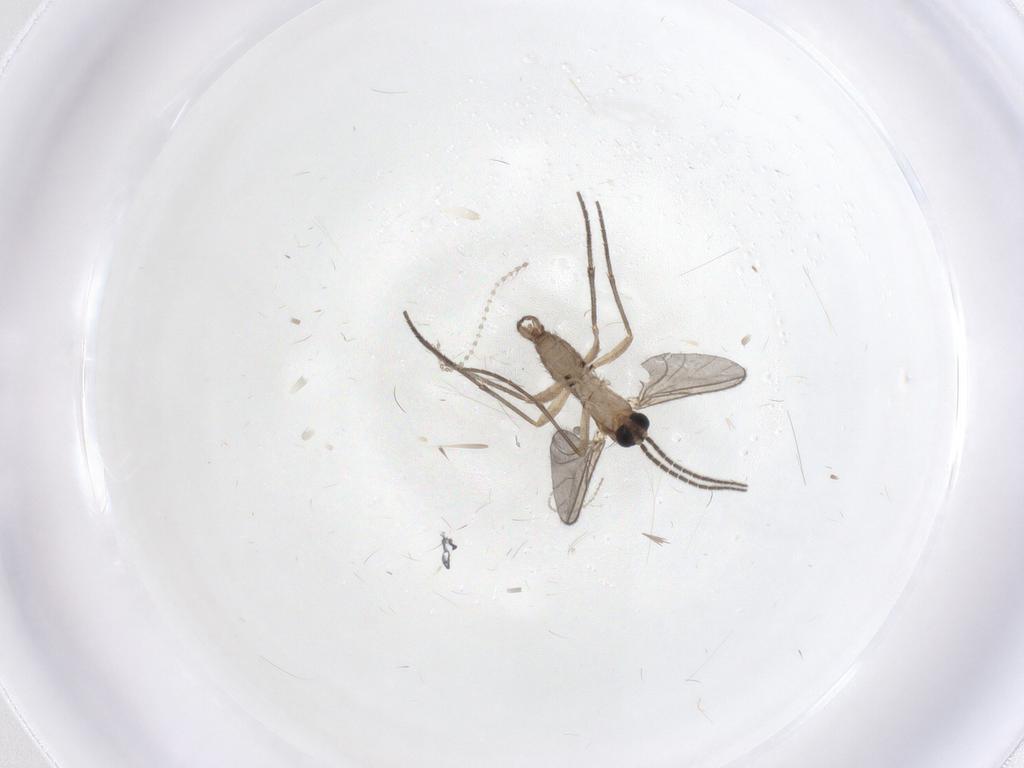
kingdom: Animalia
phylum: Arthropoda
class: Insecta
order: Diptera
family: Sciaridae
